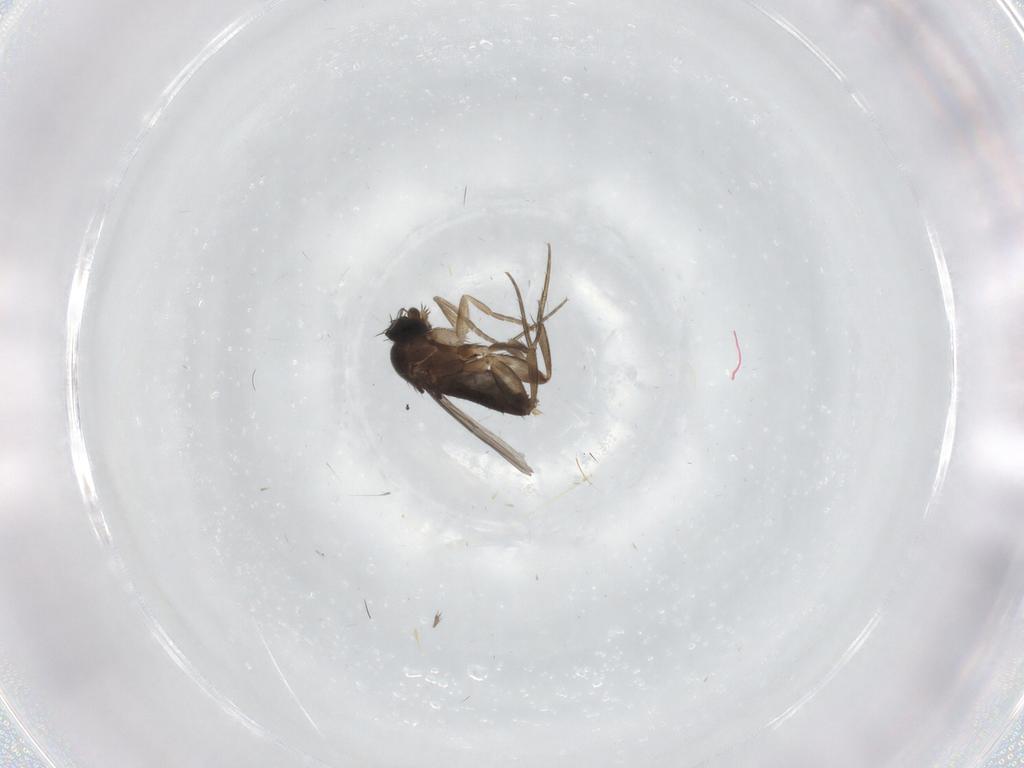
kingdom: Animalia
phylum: Arthropoda
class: Insecta
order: Diptera
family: Phoridae
